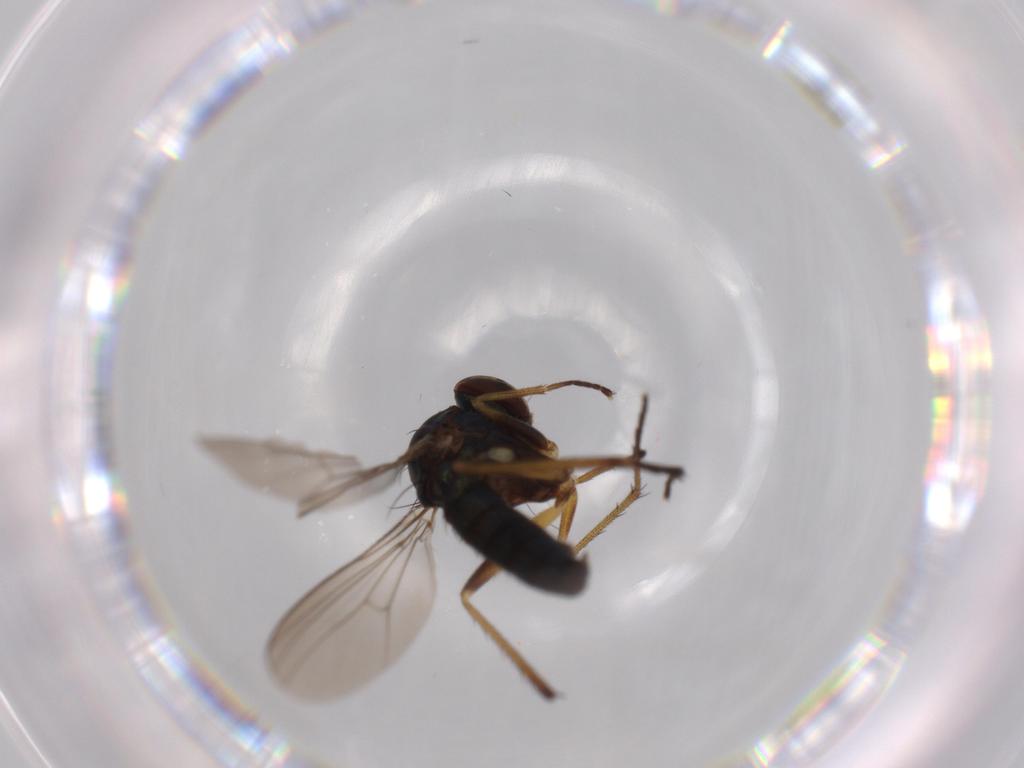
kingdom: Animalia
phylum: Arthropoda
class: Insecta
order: Diptera
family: Dolichopodidae
